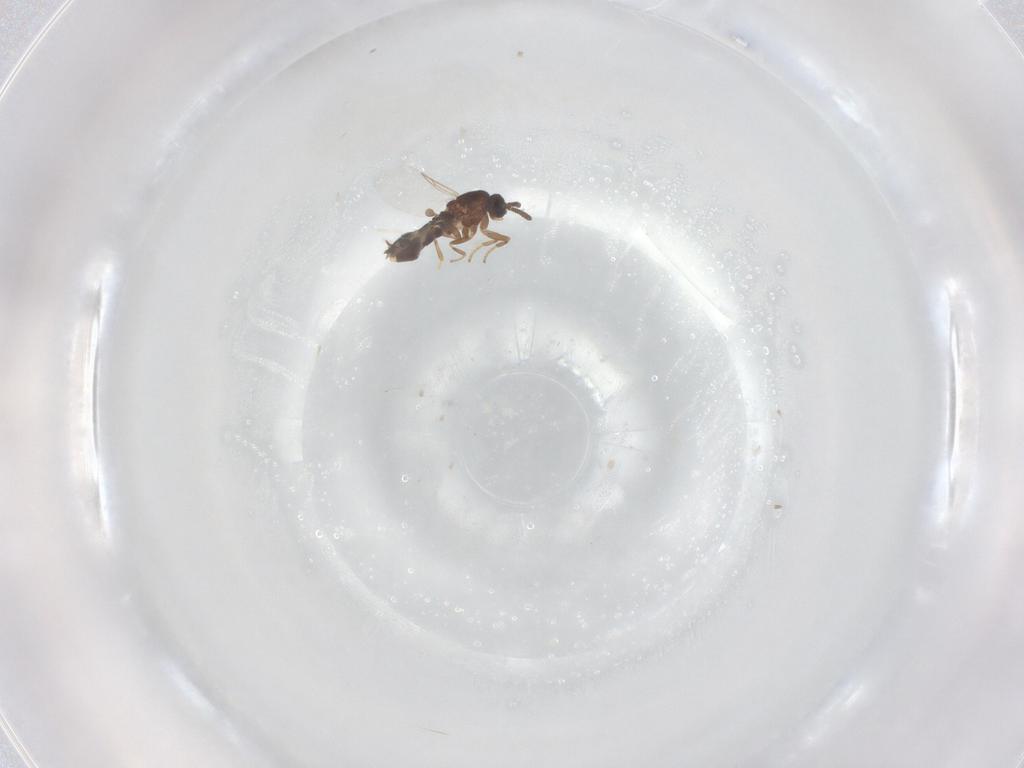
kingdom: Animalia
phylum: Arthropoda
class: Insecta
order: Diptera
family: Scatopsidae
